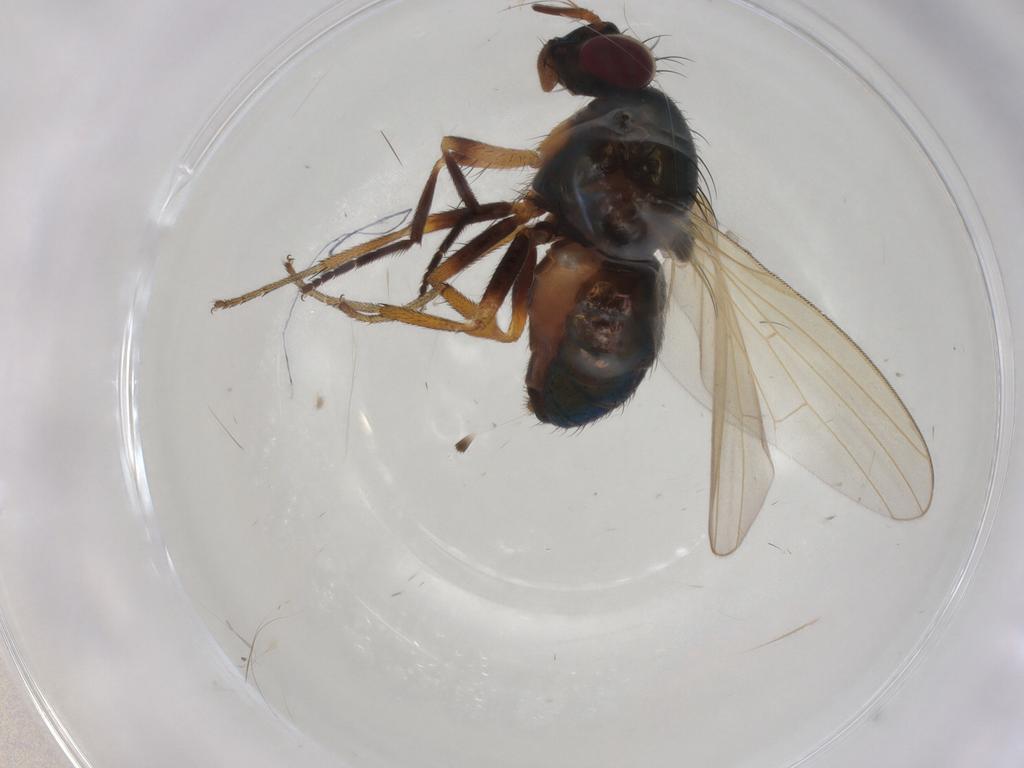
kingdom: Animalia
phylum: Arthropoda
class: Insecta
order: Diptera
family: Lauxaniidae
